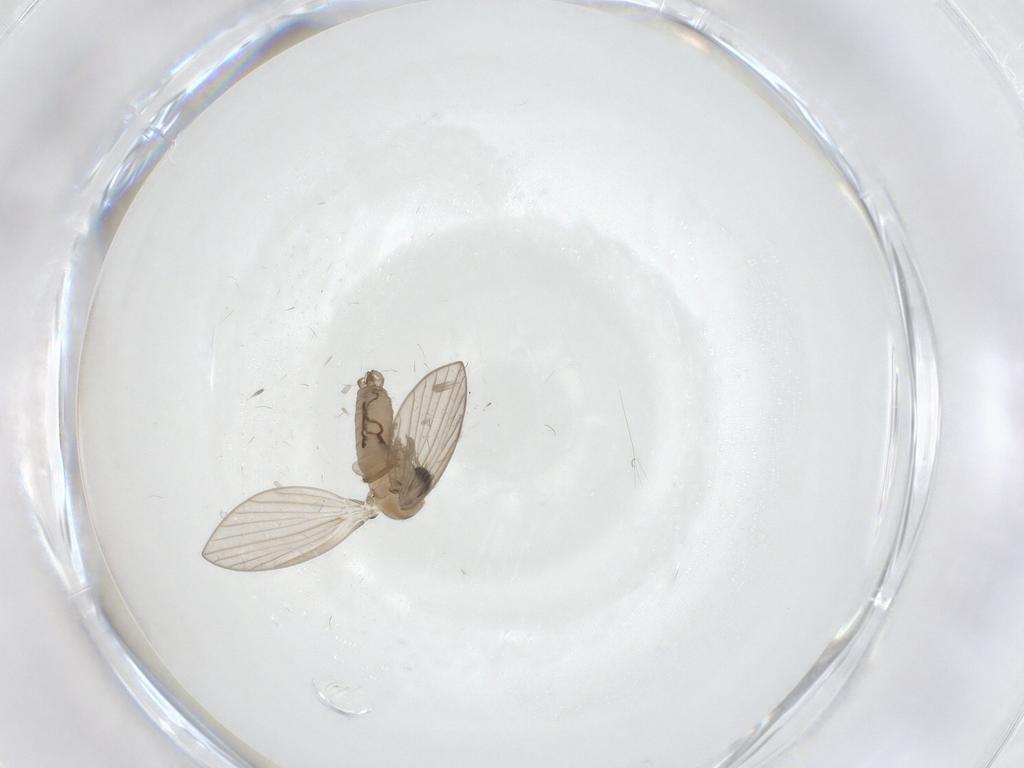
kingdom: Animalia
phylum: Arthropoda
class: Insecta
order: Diptera
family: Psychodidae
